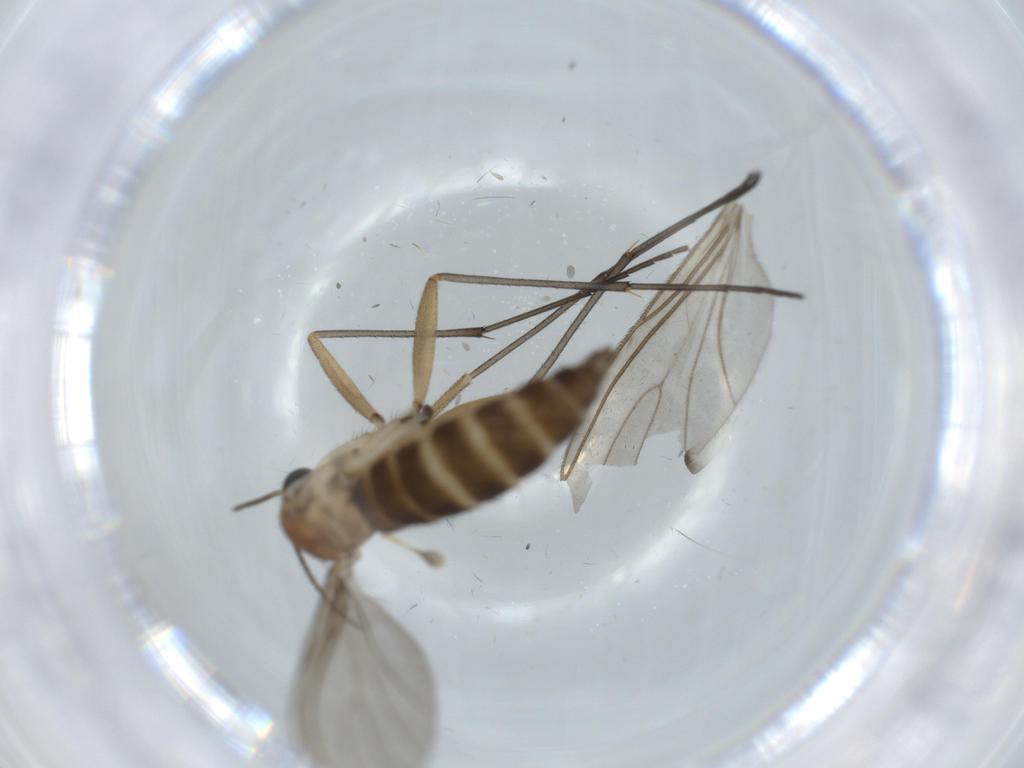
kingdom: Animalia
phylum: Arthropoda
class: Insecta
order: Diptera
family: Sciaridae
